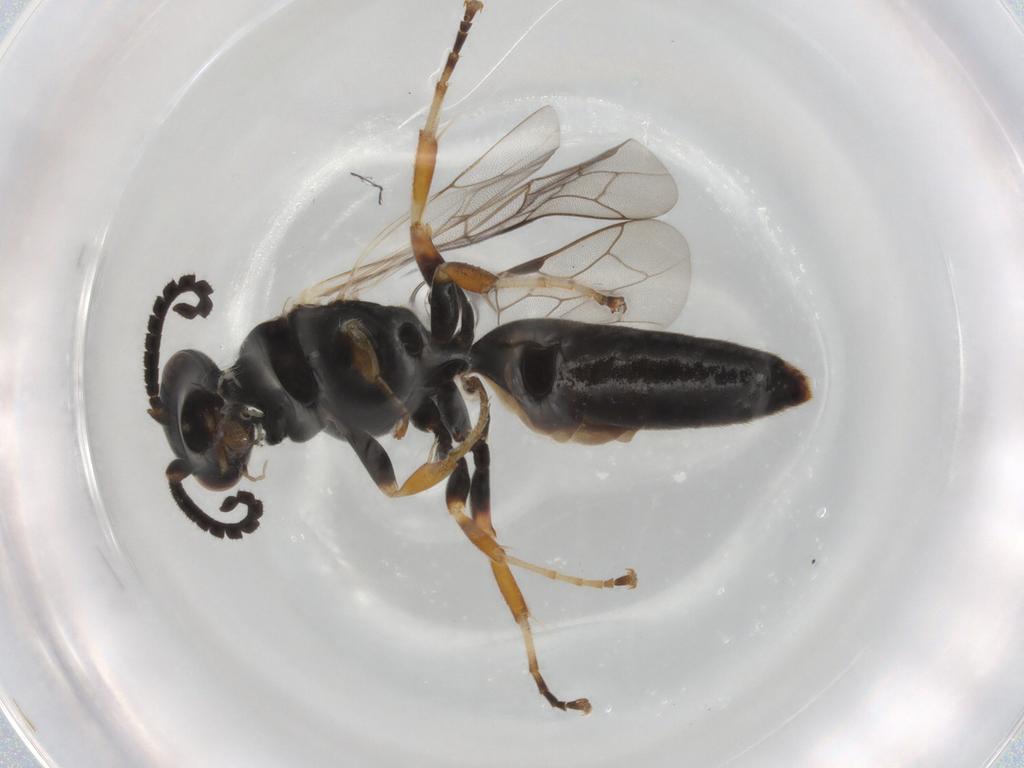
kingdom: Animalia
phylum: Arthropoda
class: Insecta
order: Hymenoptera
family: Thynnidae
